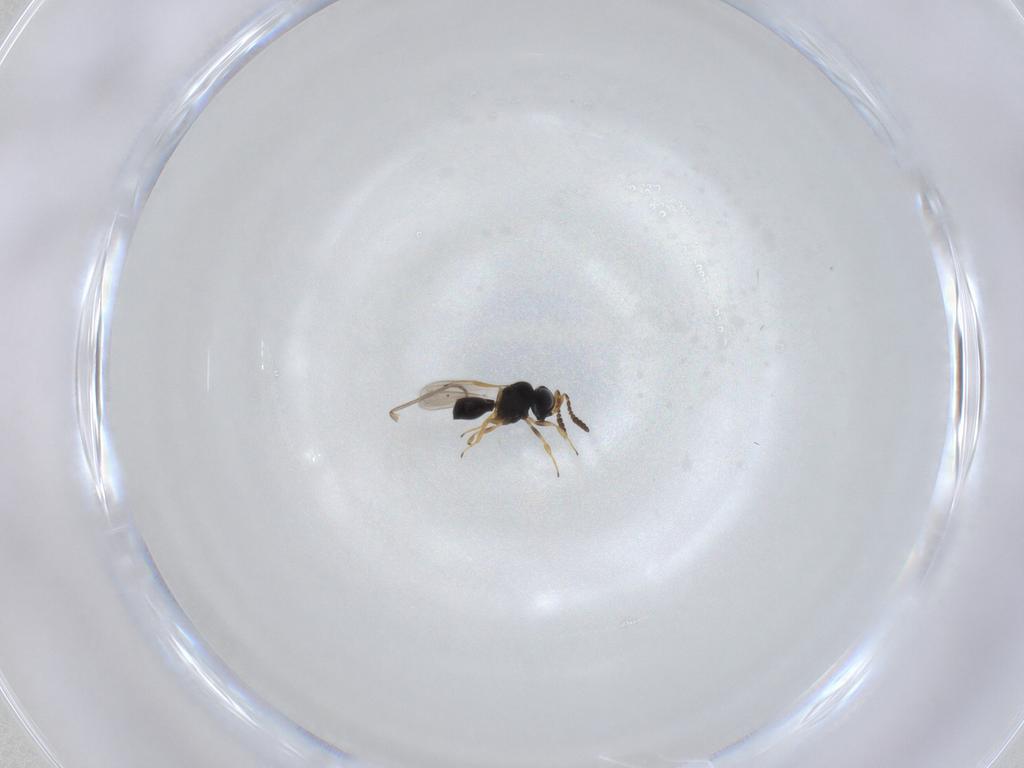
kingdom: Animalia
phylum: Arthropoda
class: Insecta
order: Hymenoptera
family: Scelionidae
